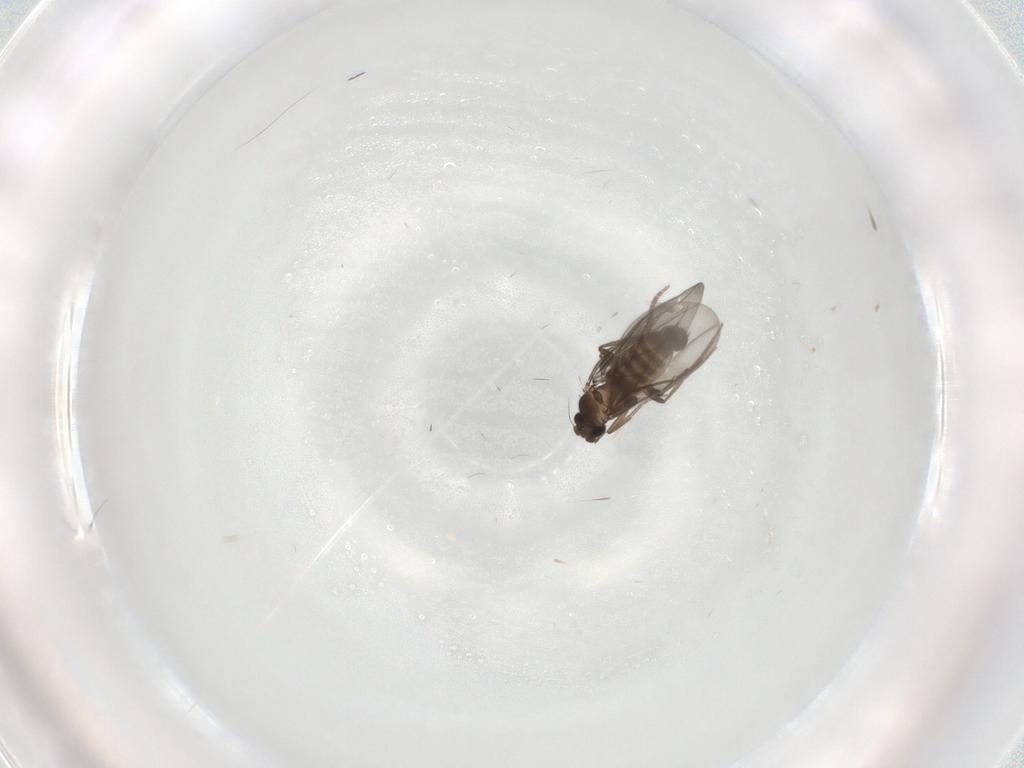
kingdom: Animalia
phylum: Arthropoda
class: Insecta
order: Diptera
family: Phoridae
